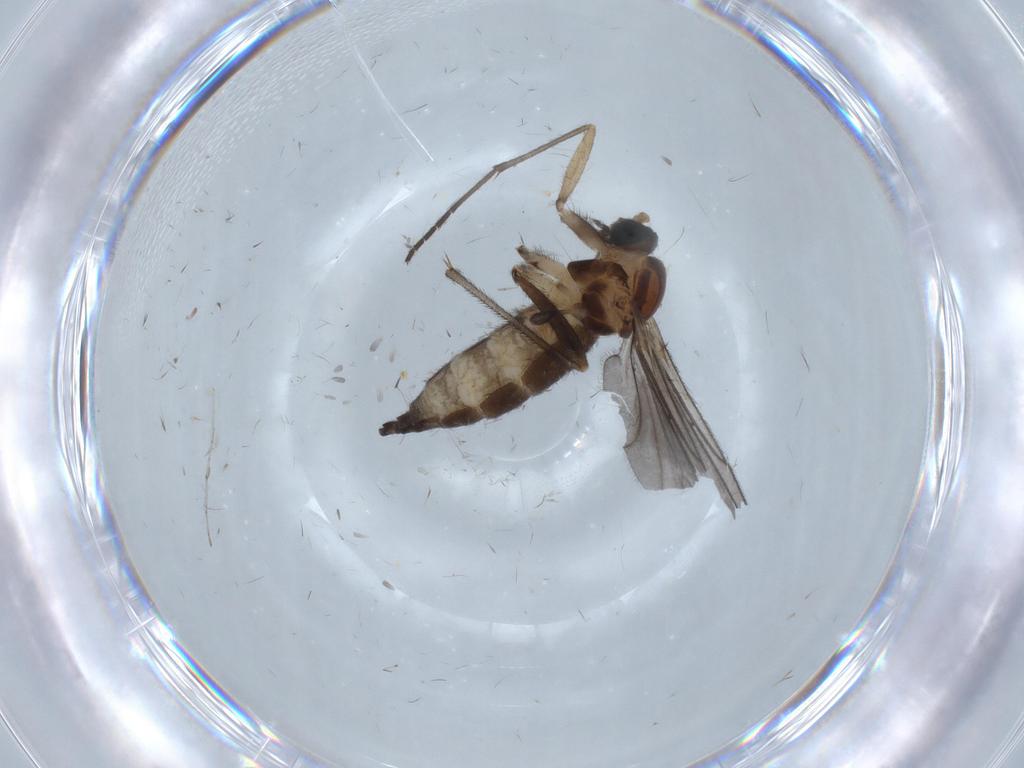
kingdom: Animalia
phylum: Arthropoda
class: Insecta
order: Diptera
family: Sciaridae
